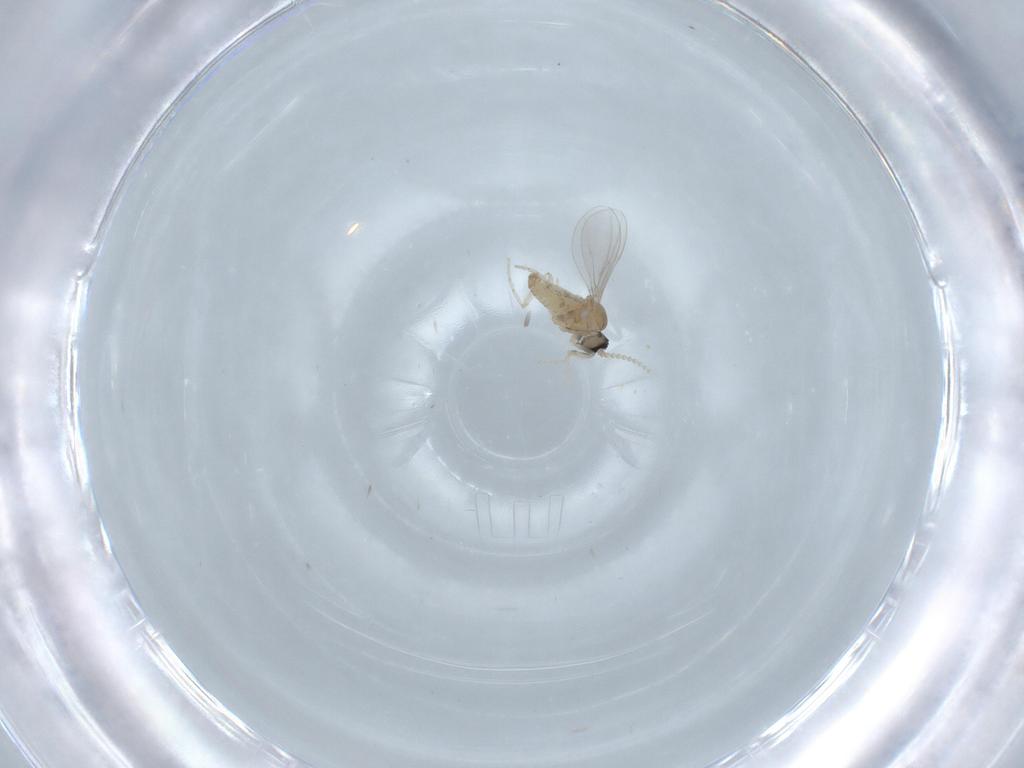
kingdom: Animalia
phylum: Arthropoda
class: Insecta
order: Diptera
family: Cecidomyiidae
